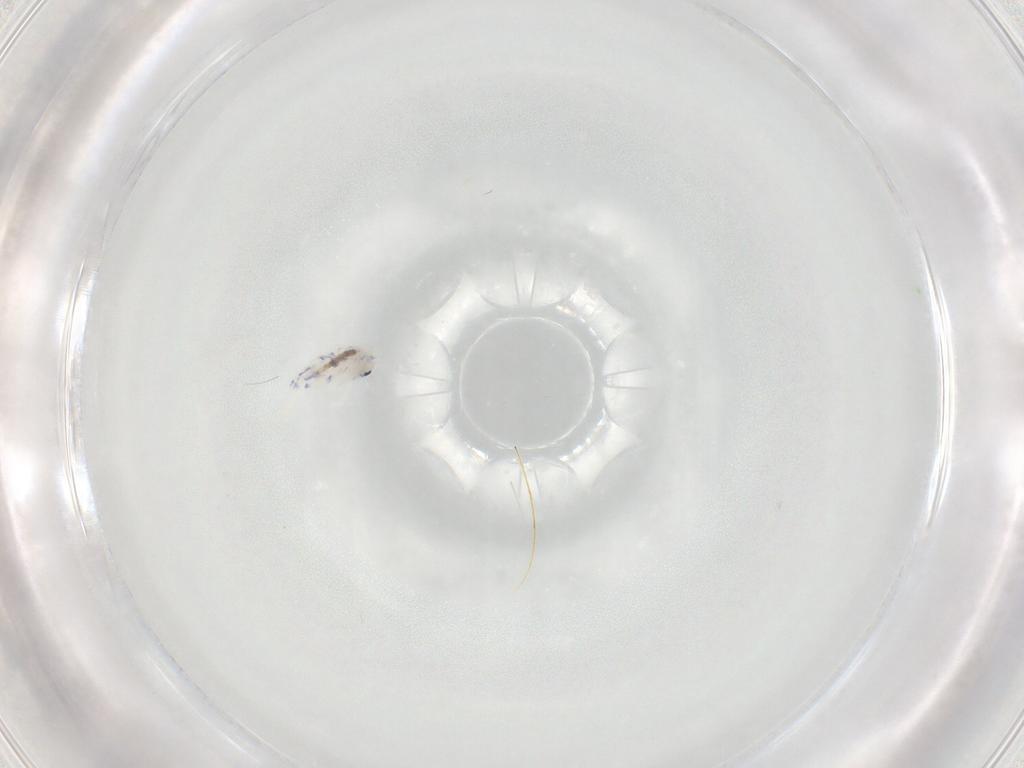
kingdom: Animalia
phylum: Arthropoda
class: Collembola
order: Entomobryomorpha
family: Entomobryidae
